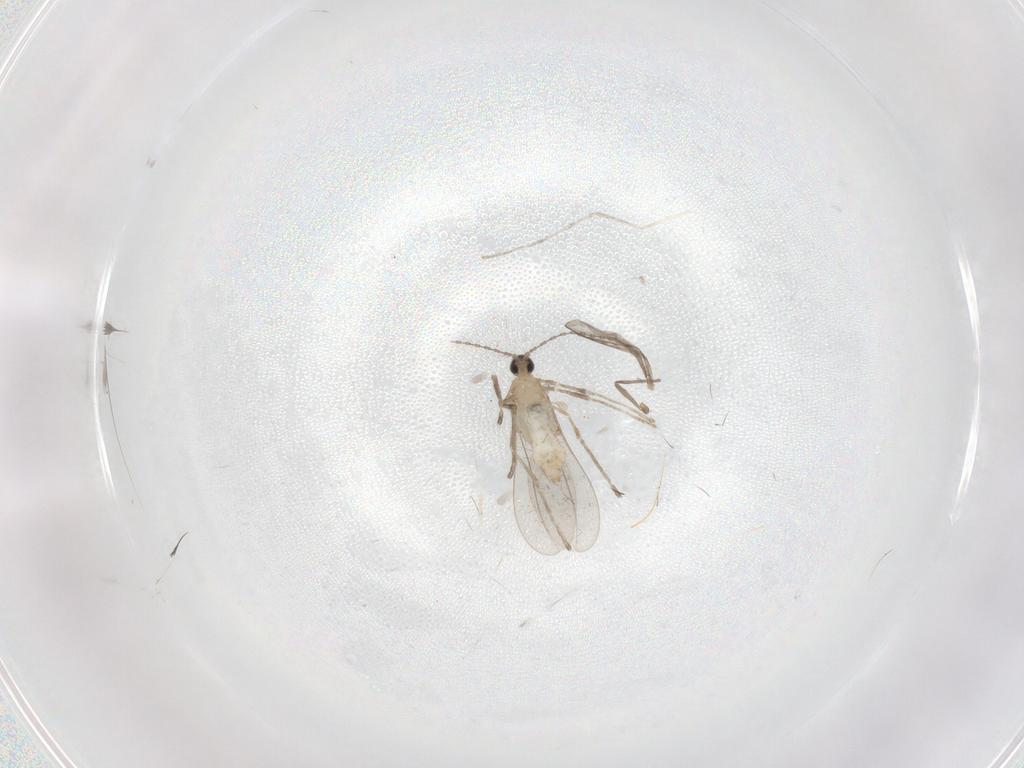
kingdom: Animalia
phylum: Arthropoda
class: Insecta
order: Diptera
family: Cecidomyiidae
